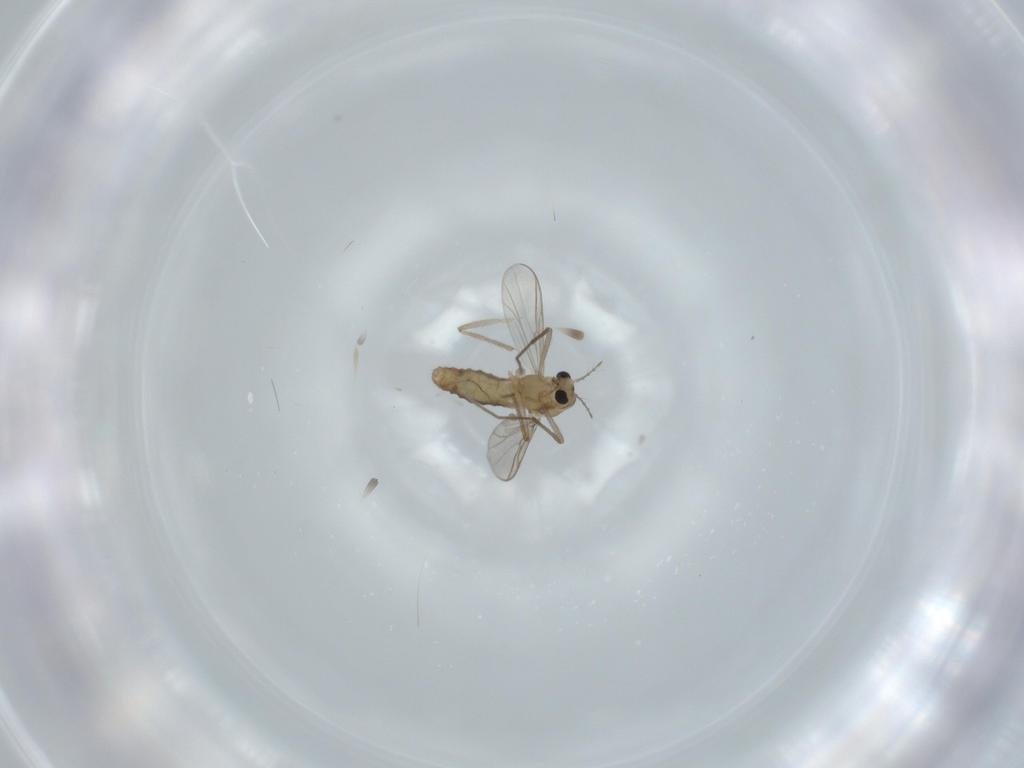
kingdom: Animalia
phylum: Arthropoda
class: Insecta
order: Diptera
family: Chironomidae
